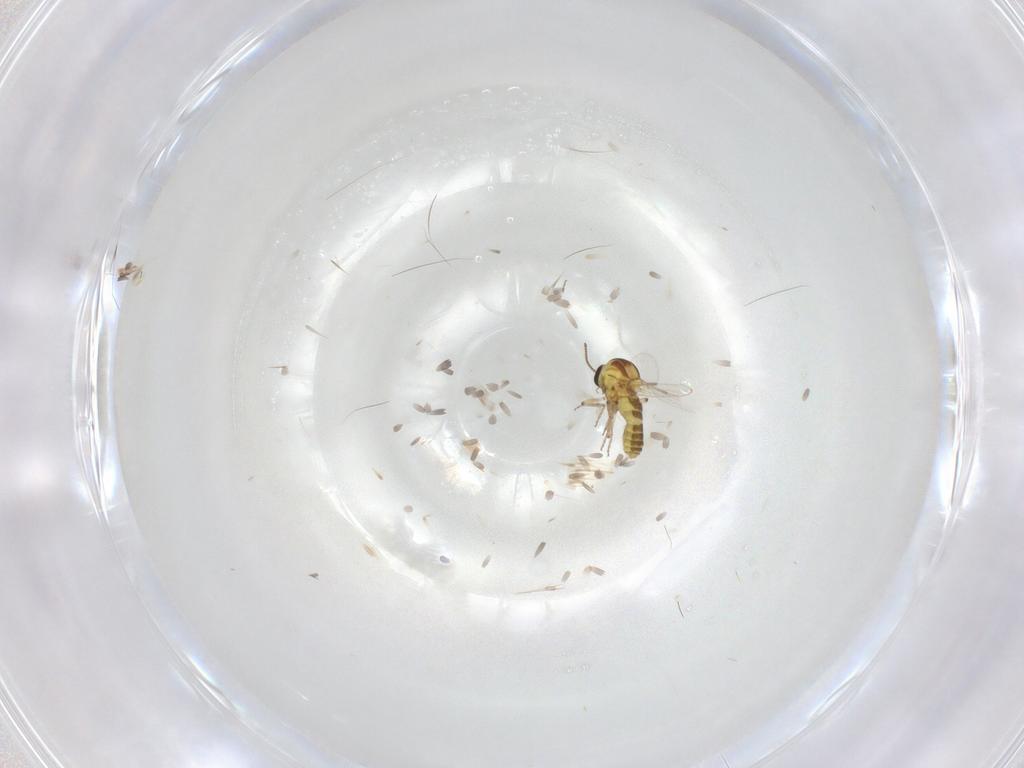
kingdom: Animalia
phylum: Arthropoda
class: Insecta
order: Diptera
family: Ceratopogonidae
